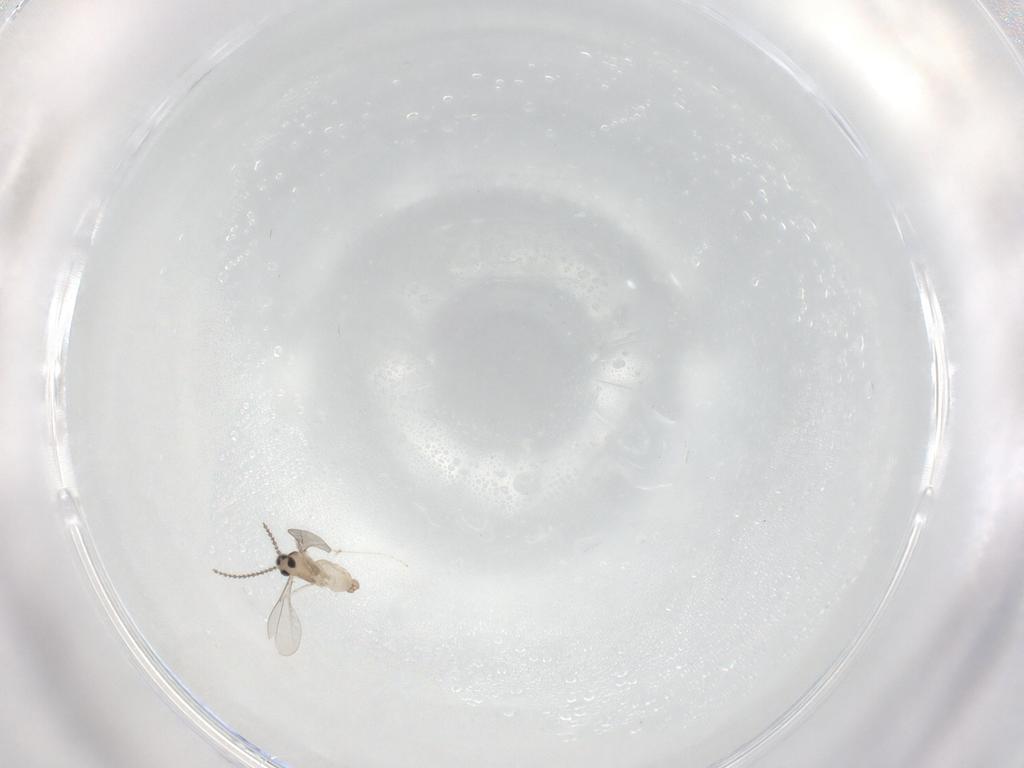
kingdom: Animalia
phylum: Arthropoda
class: Insecta
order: Diptera
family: Cecidomyiidae
